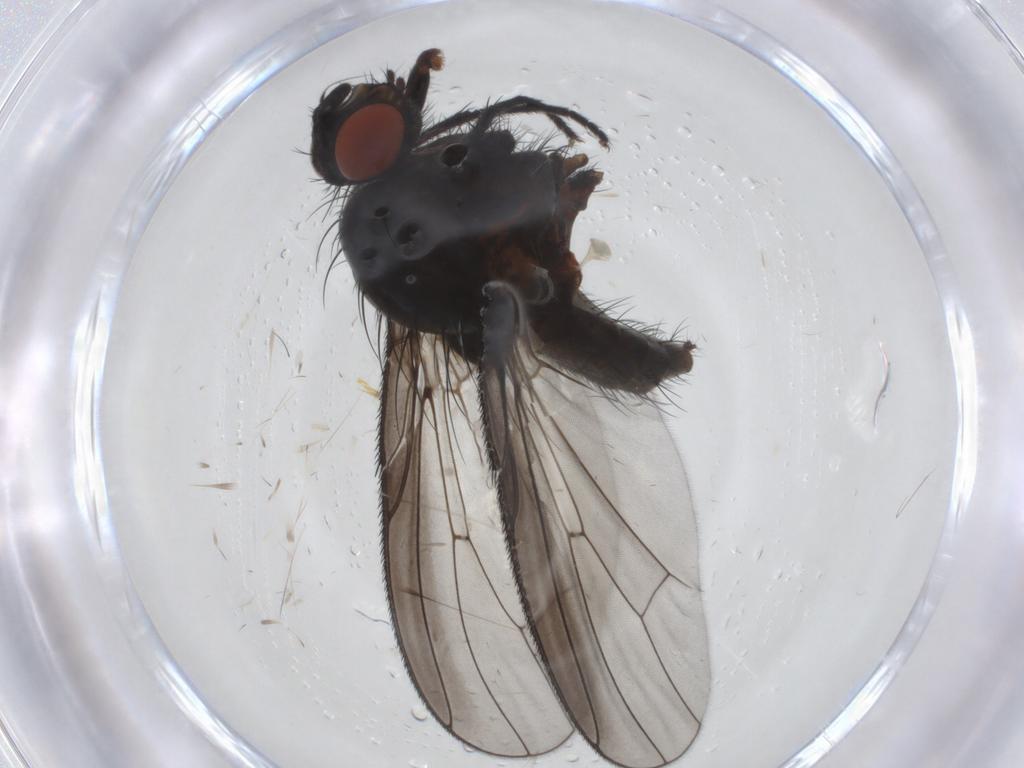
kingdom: Animalia
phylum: Arthropoda
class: Insecta
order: Diptera
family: Anthomyiidae
